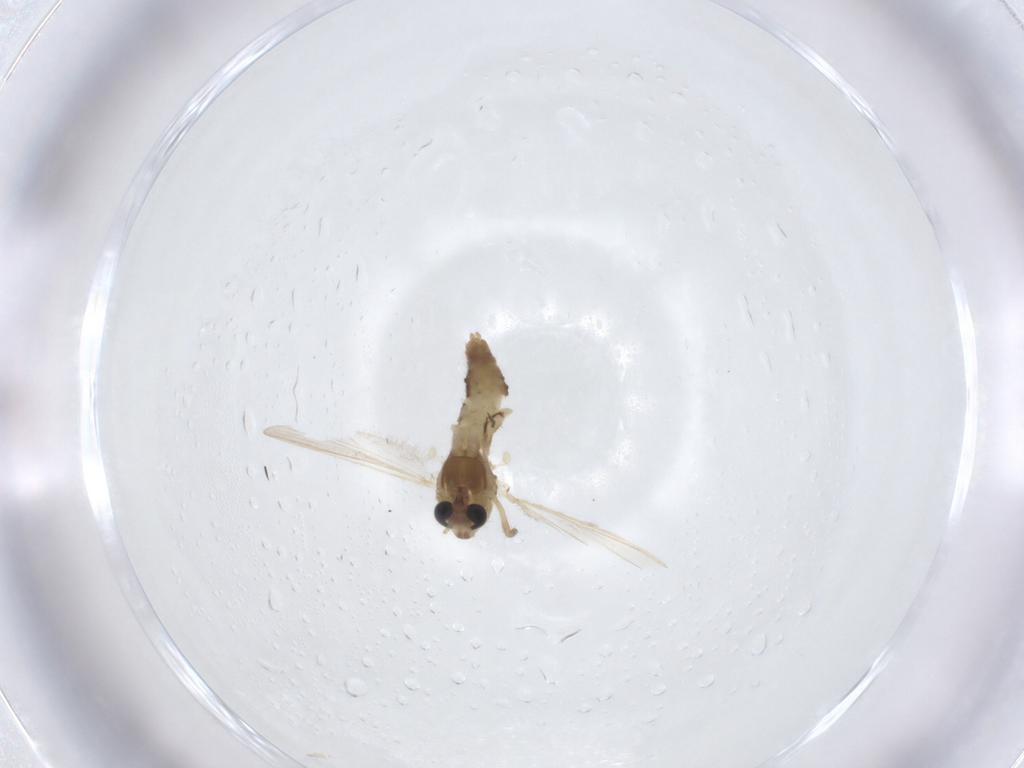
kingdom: Animalia
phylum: Arthropoda
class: Insecta
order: Diptera
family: Chironomidae
